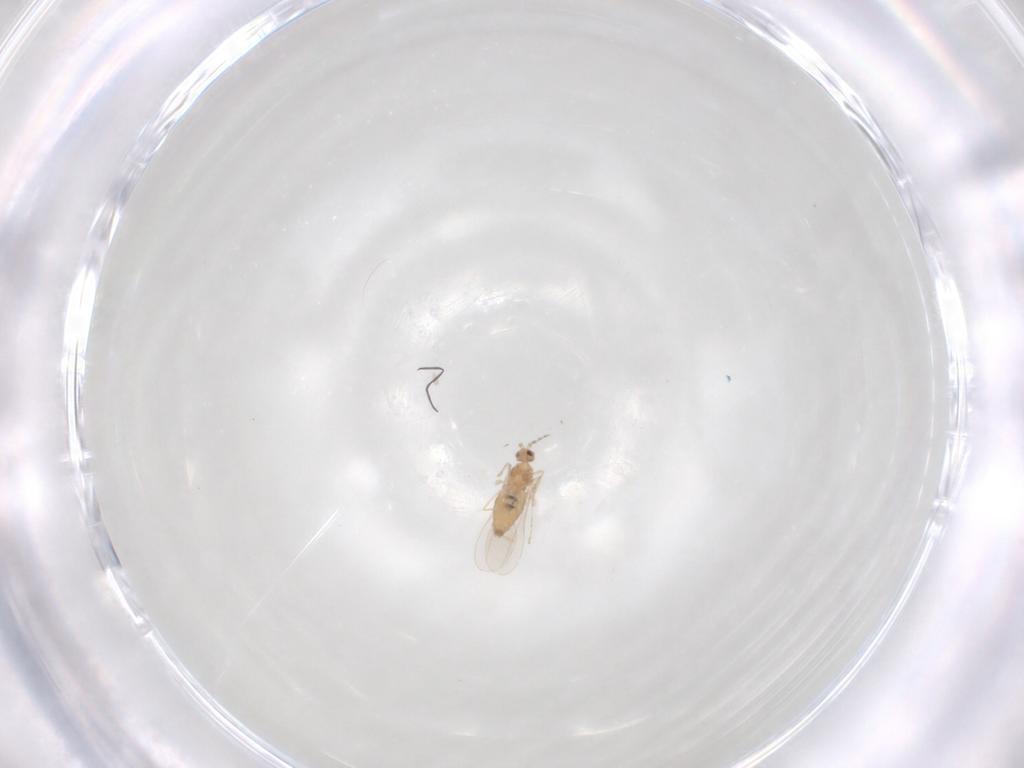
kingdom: Animalia
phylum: Arthropoda
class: Insecta
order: Diptera
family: Cecidomyiidae
